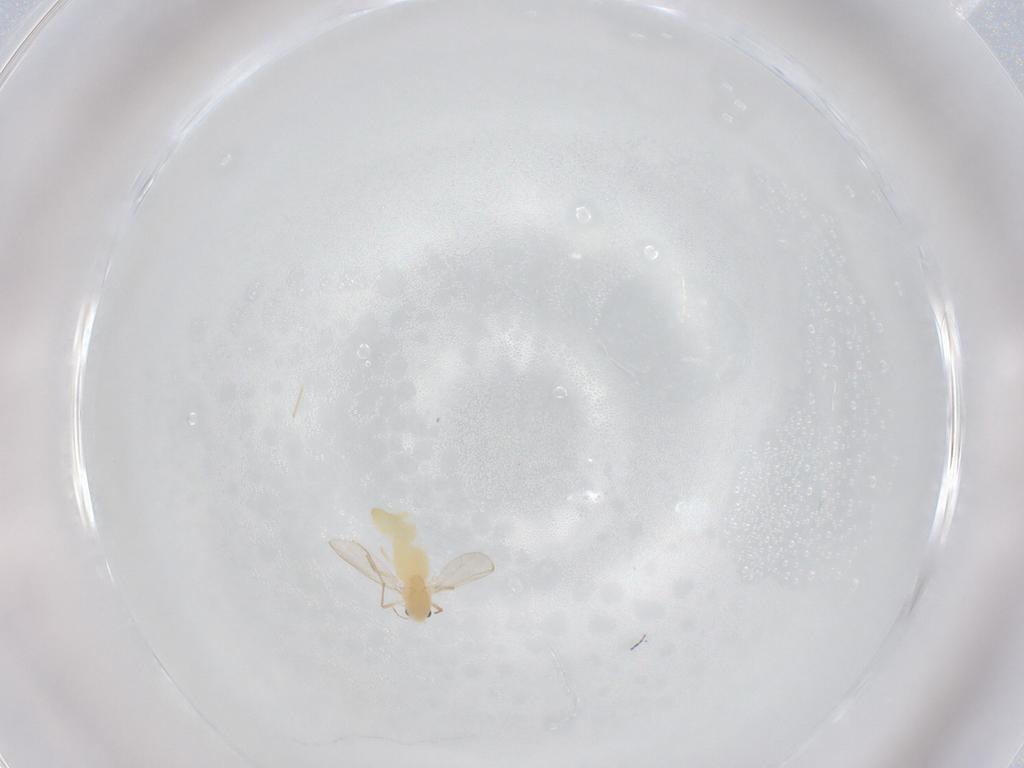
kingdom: Animalia
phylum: Arthropoda
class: Insecta
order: Diptera
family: Chironomidae
